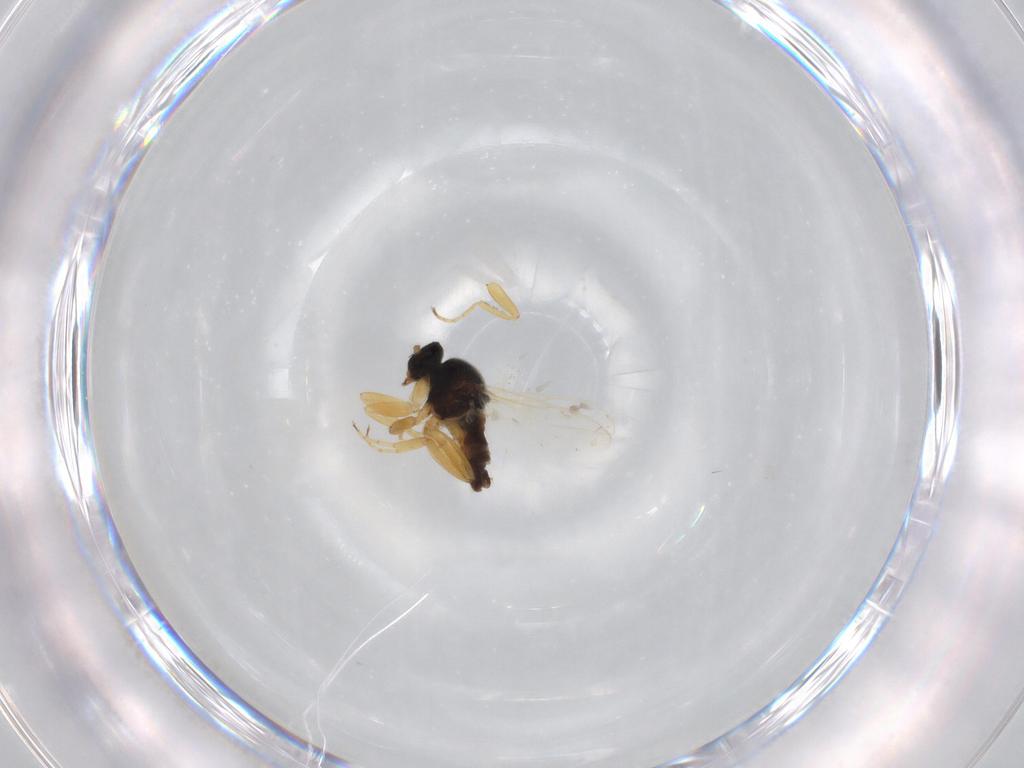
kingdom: Animalia
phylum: Arthropoda
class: Insecta
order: Diptera
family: Hybotidae
